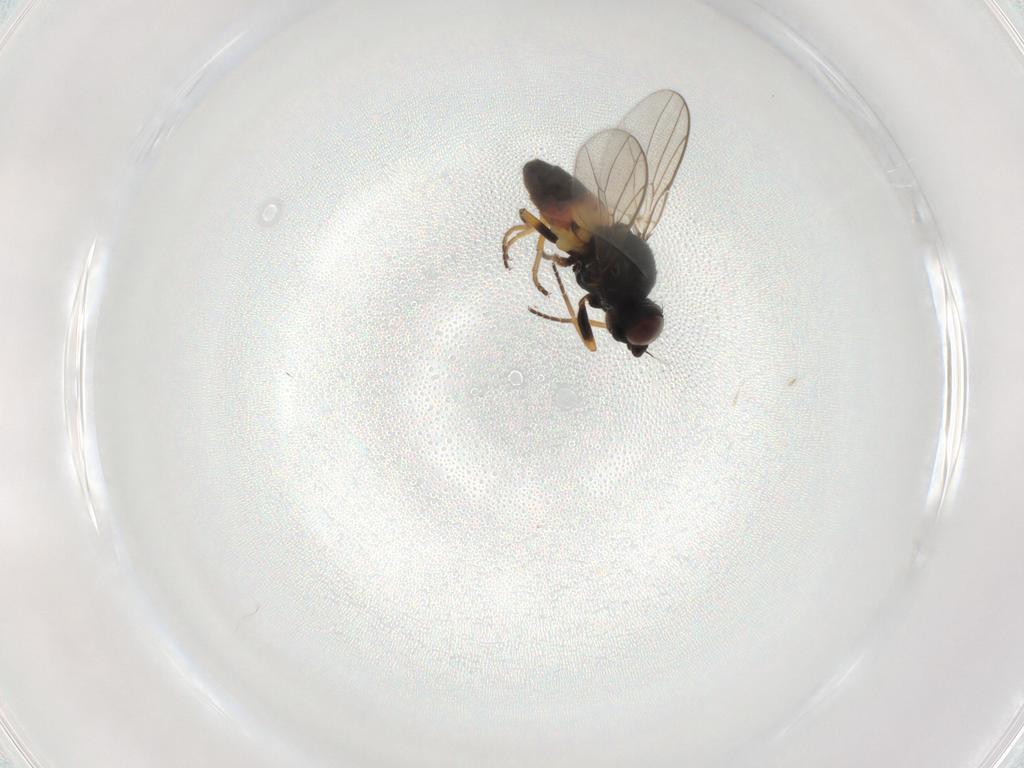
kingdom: Animalia
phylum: Arthropoda
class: Insecta
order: Diptera
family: Chloropidae
